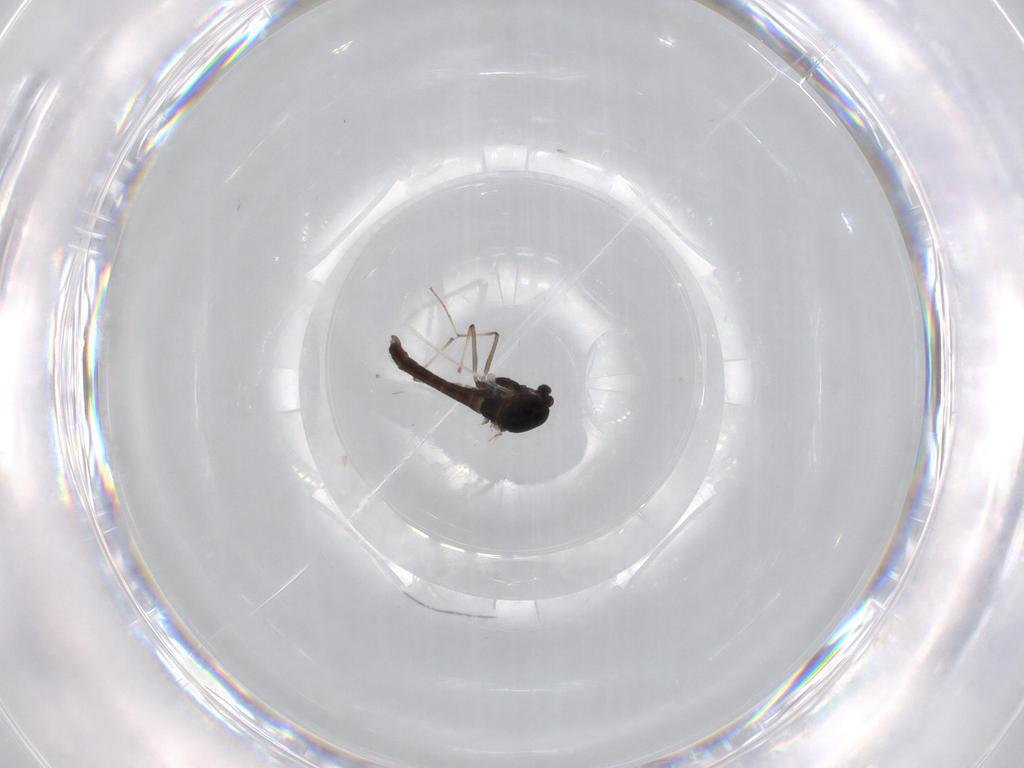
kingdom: Animalia
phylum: Arthropoda
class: Insecta
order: Diptera
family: Chironomidae
